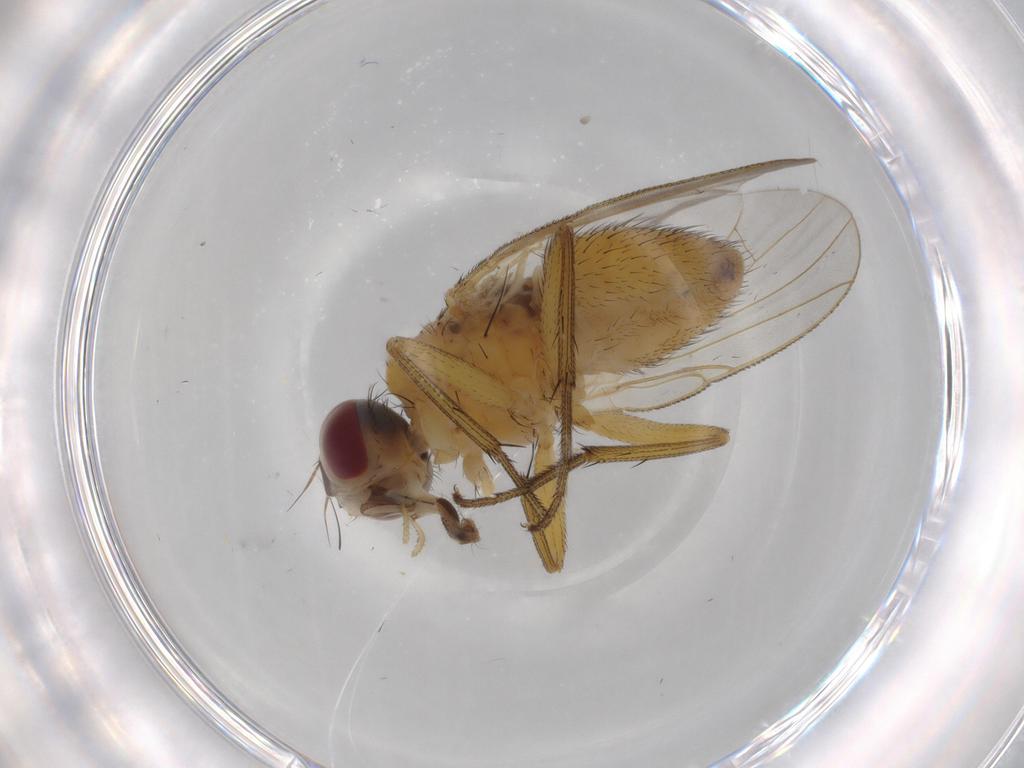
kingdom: Animalia
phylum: Arthropoda
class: Insecta
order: Diptera
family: Muscidae
